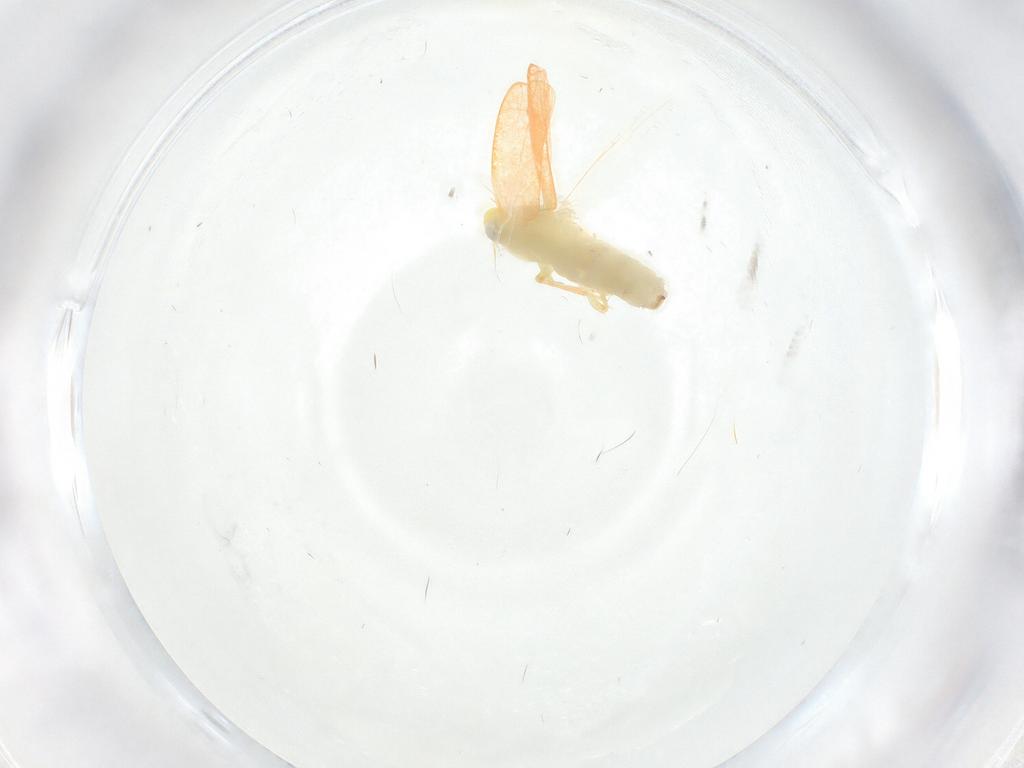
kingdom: Animalia
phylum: Arthropoda
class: Insecta
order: Hemiptera
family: Cicadellidae
